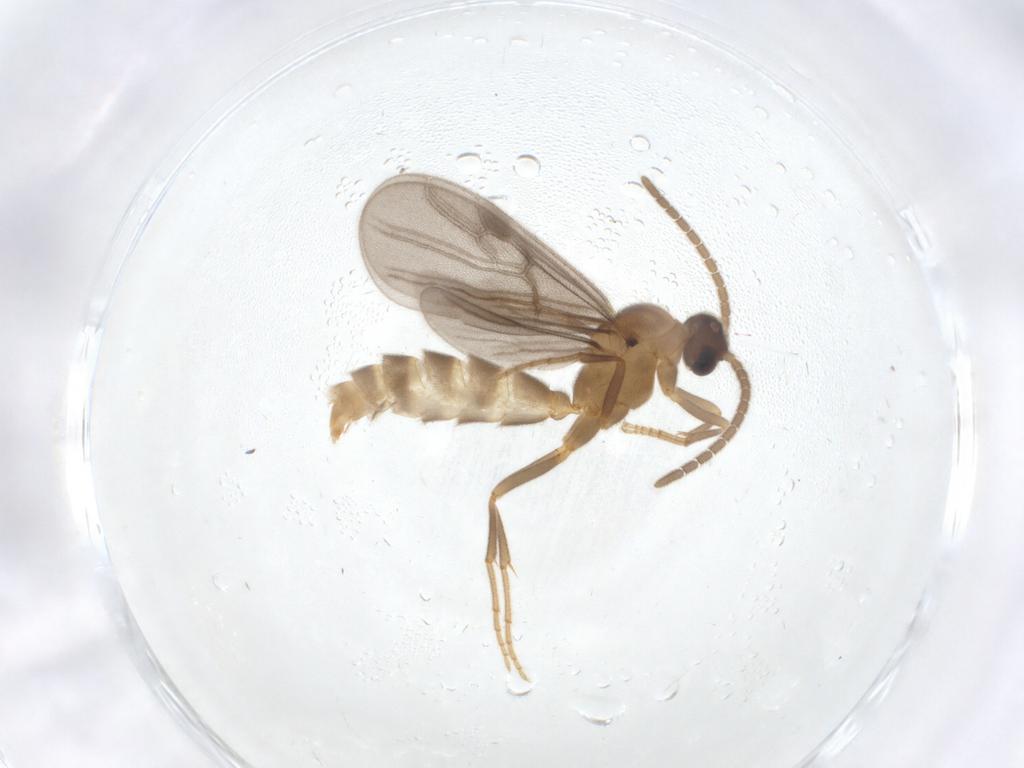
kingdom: Animalia
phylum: Arthropoda
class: Insecta
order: Hymenoptera
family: Formicidae
